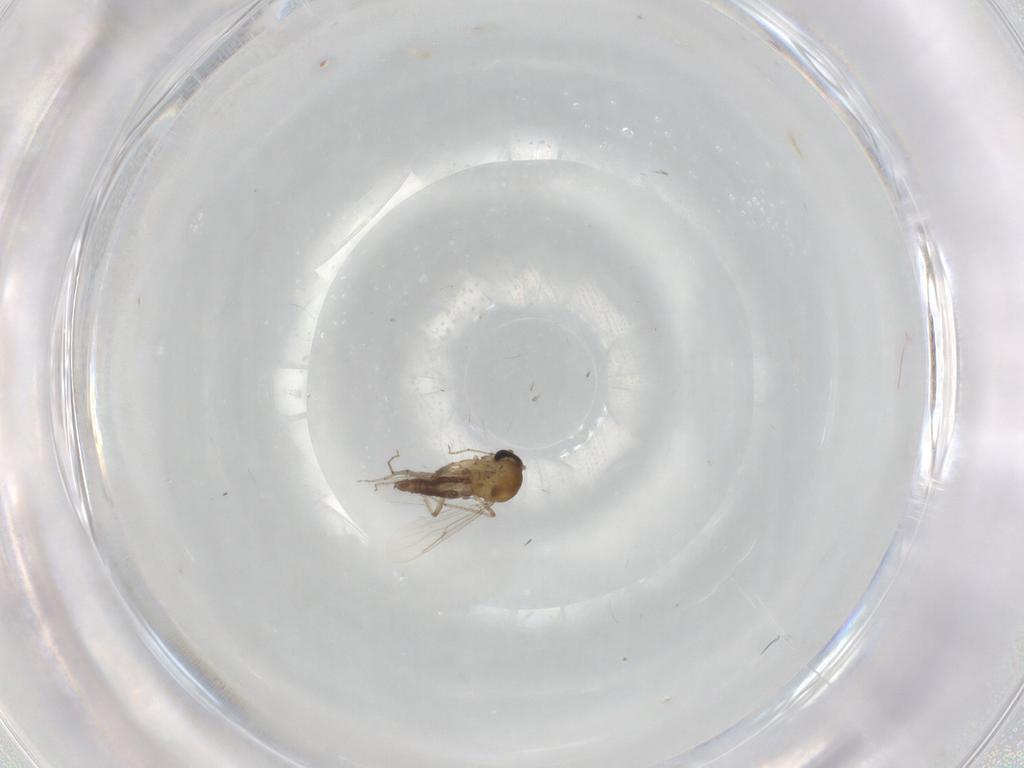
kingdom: Animalia
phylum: Arthropoda
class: Insecta
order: Diptera
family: Ceratopogonidae
